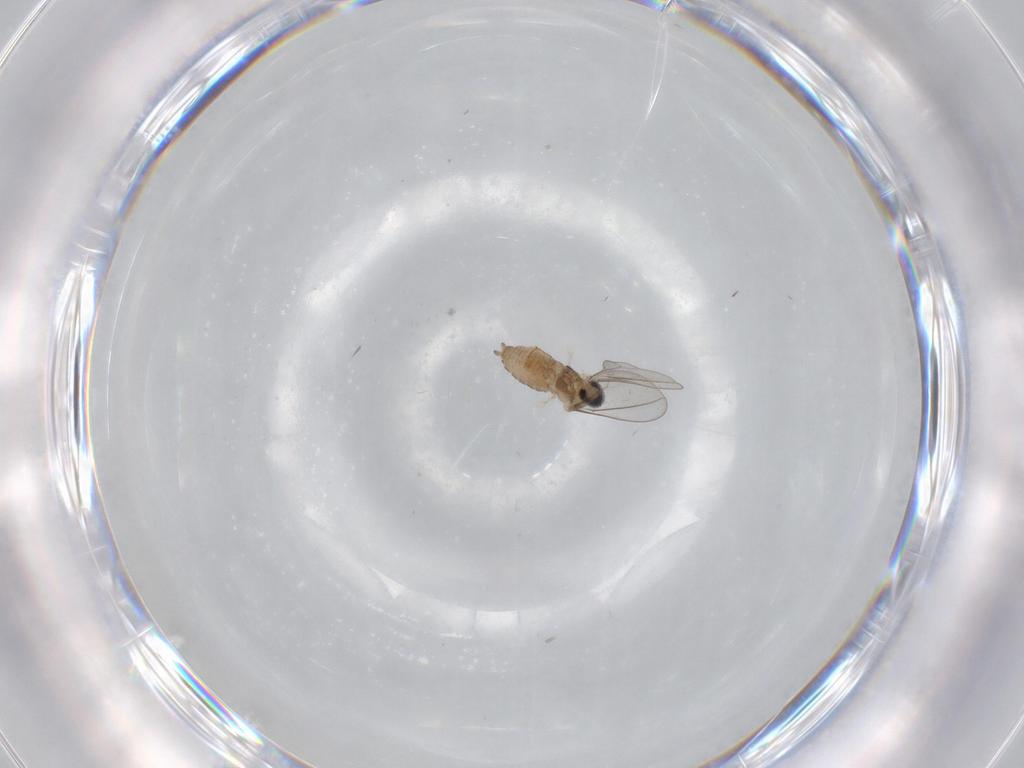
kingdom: Animalia
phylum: Arthropoda
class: Insecta
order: Diptera
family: Cecidomyiidae
